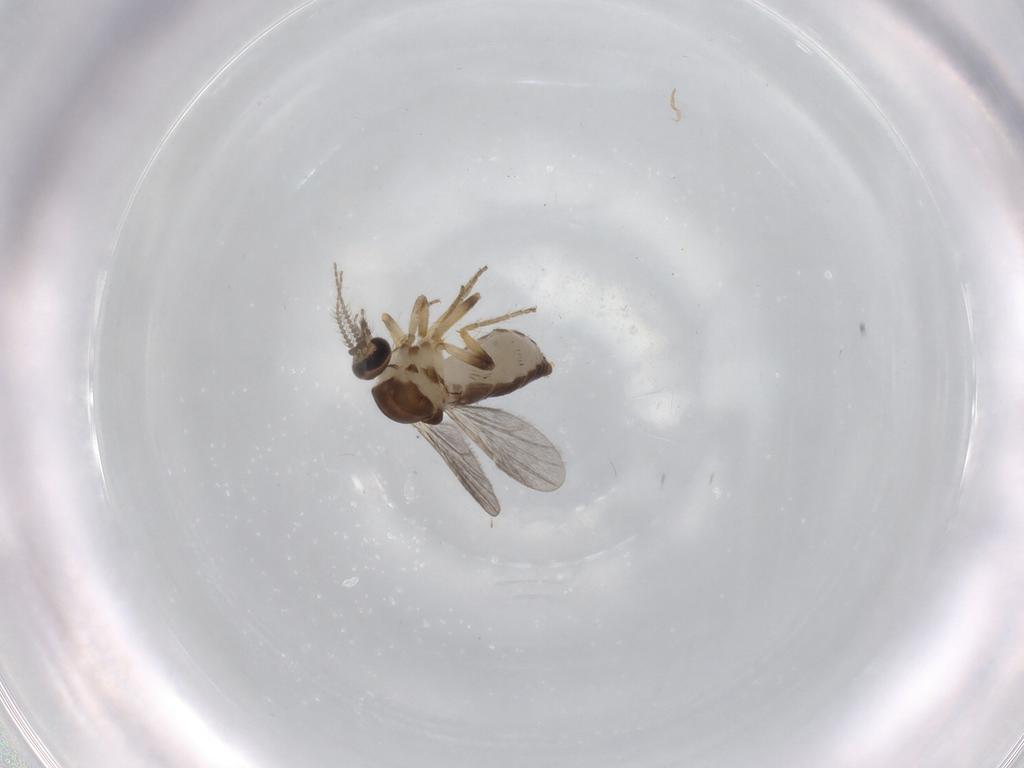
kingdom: Animalia
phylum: Arthropoda
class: Insecta
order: Diptera
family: Ceratopogonidae
